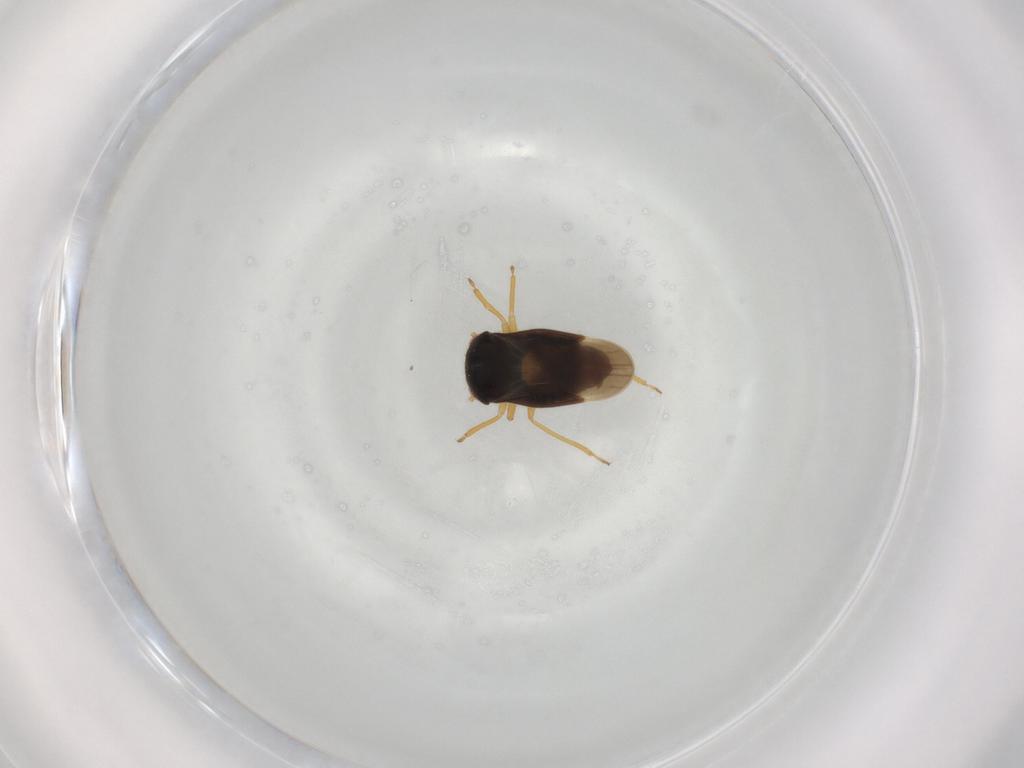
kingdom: Animalia
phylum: Arthropoda
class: Insecta
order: Hemiptera
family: Schizopteridae
